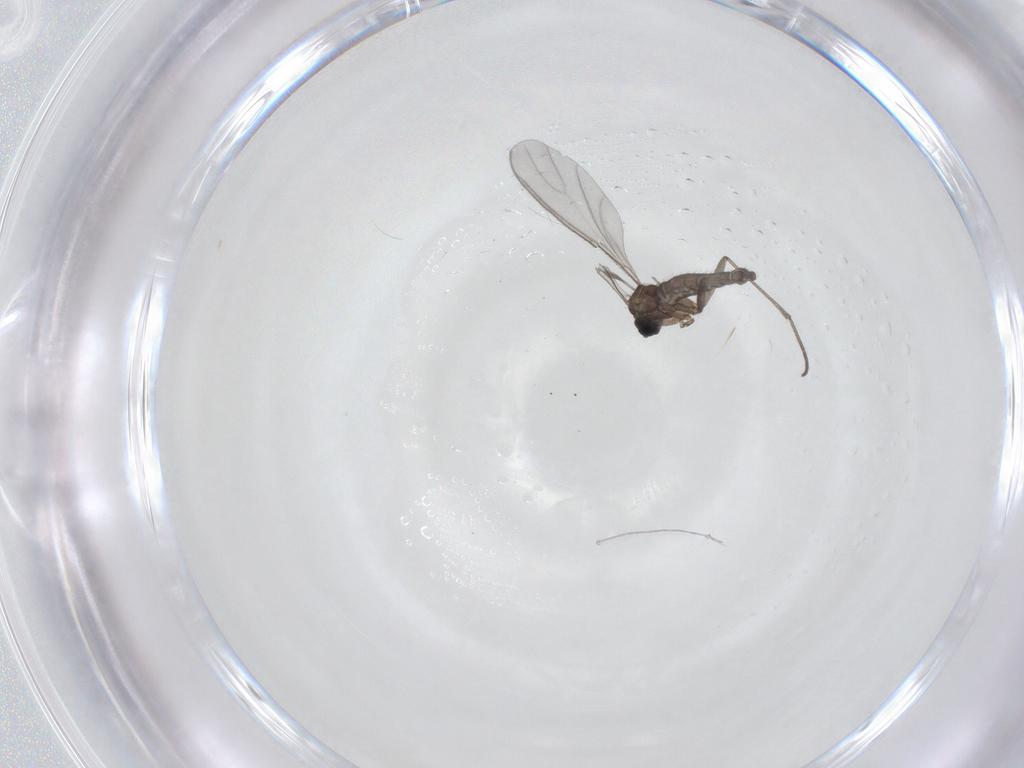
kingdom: Animalia
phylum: Arthropoda
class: Insecta
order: Diptera
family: Sciaridae
